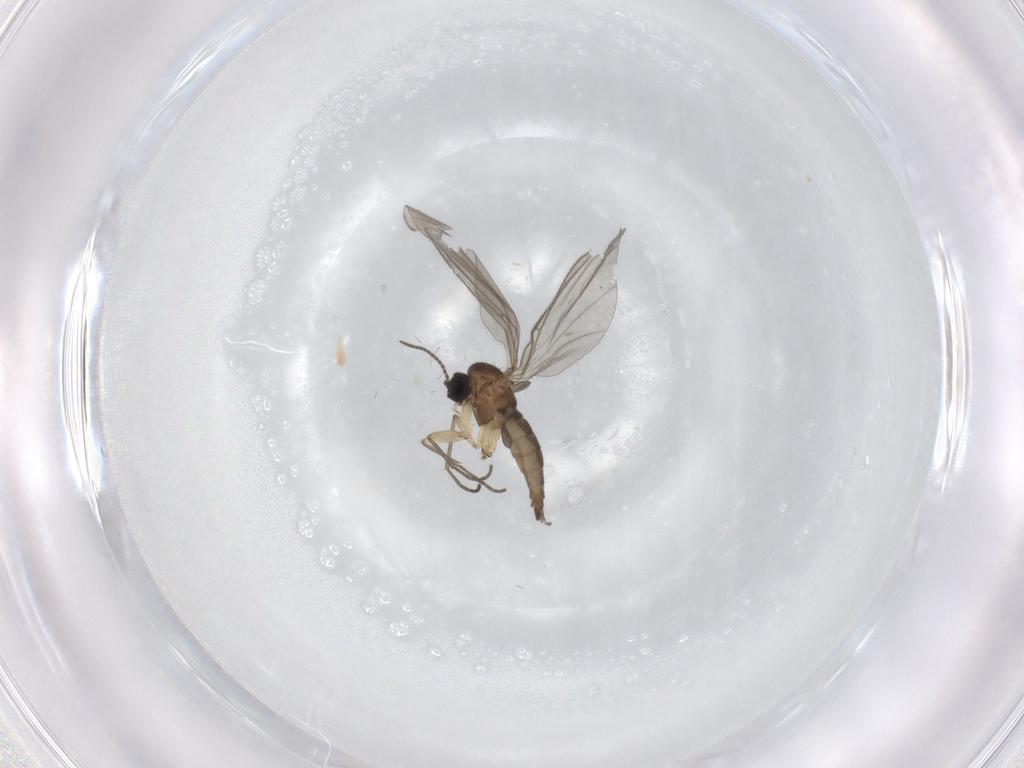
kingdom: Animalia
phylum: Arthropoda
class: Insecta
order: Diptera
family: Sciaridae
